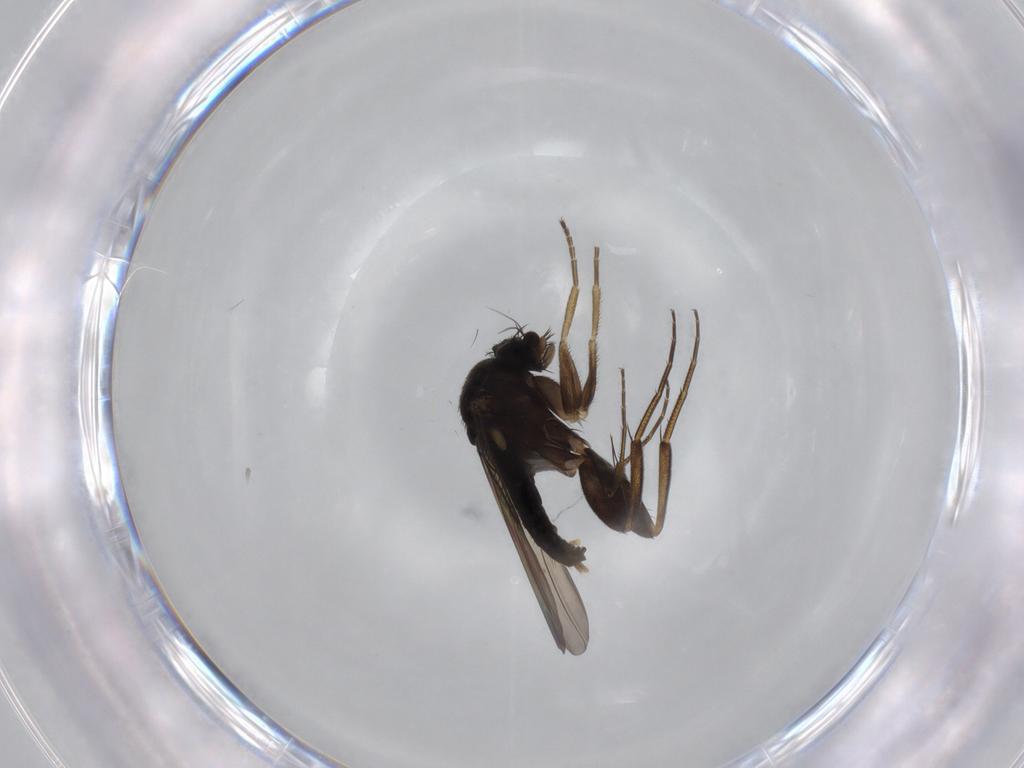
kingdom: Animalia
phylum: Arthropoda
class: Insecta
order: Diptera
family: Phoridae
